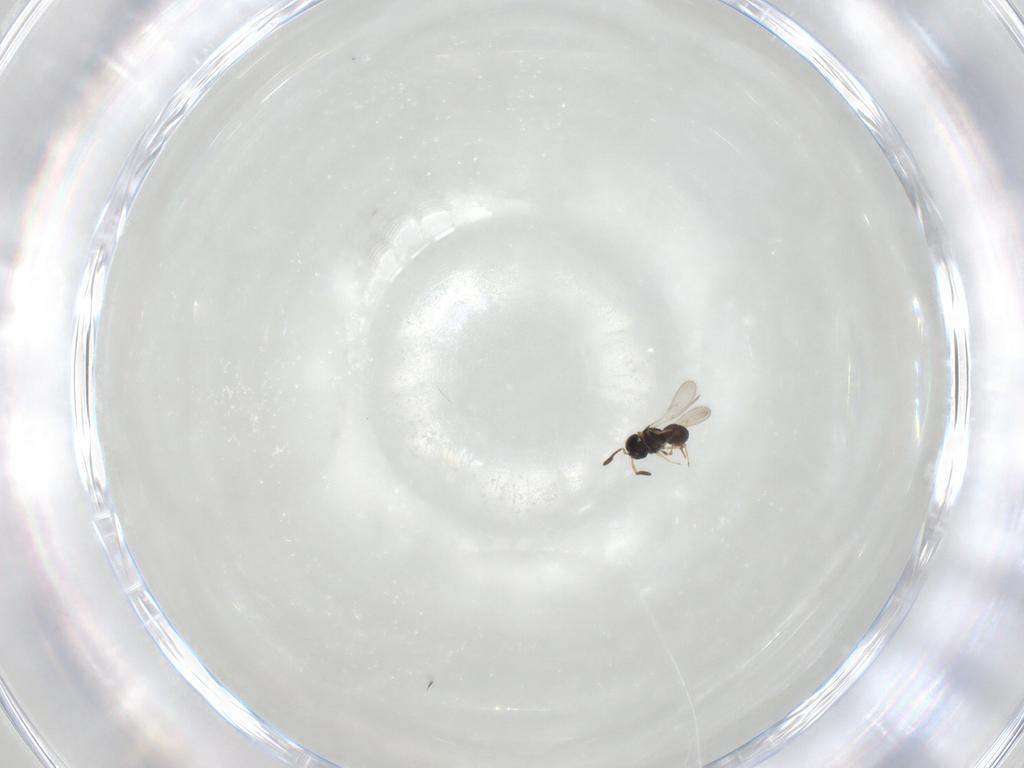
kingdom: Animalia
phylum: Arthropoda
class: Insecta
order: Hymenoptera
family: Scelionidae
